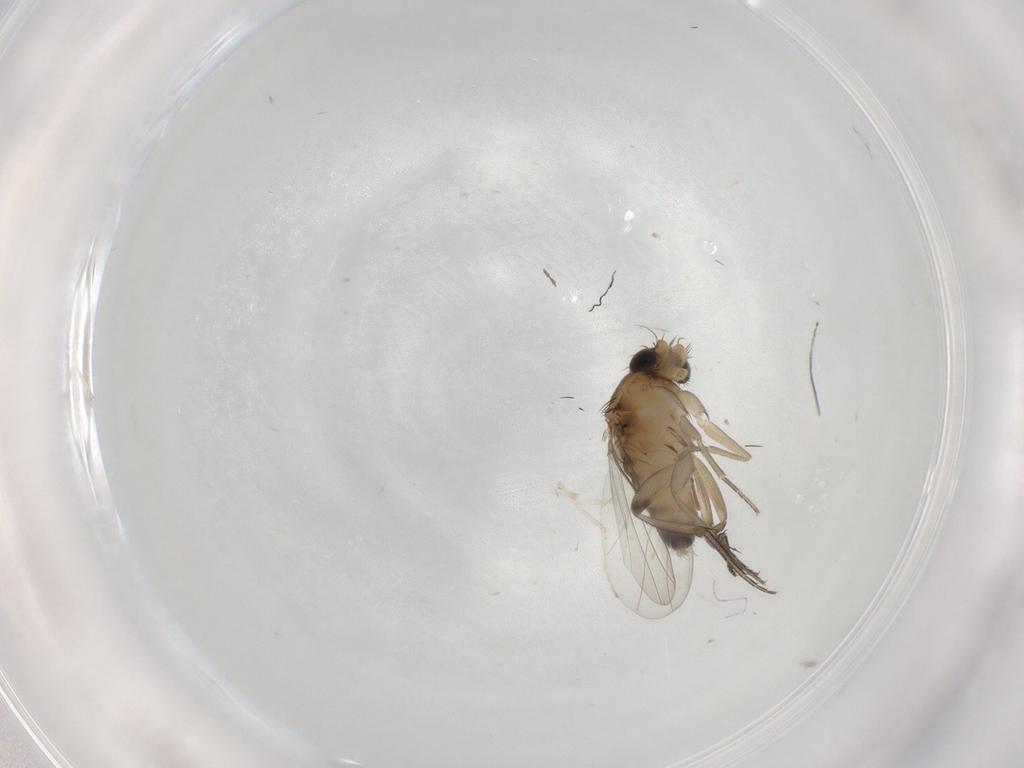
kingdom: Animalia
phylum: Arthropoda
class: Insecta
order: Diptera
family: Phoridae
